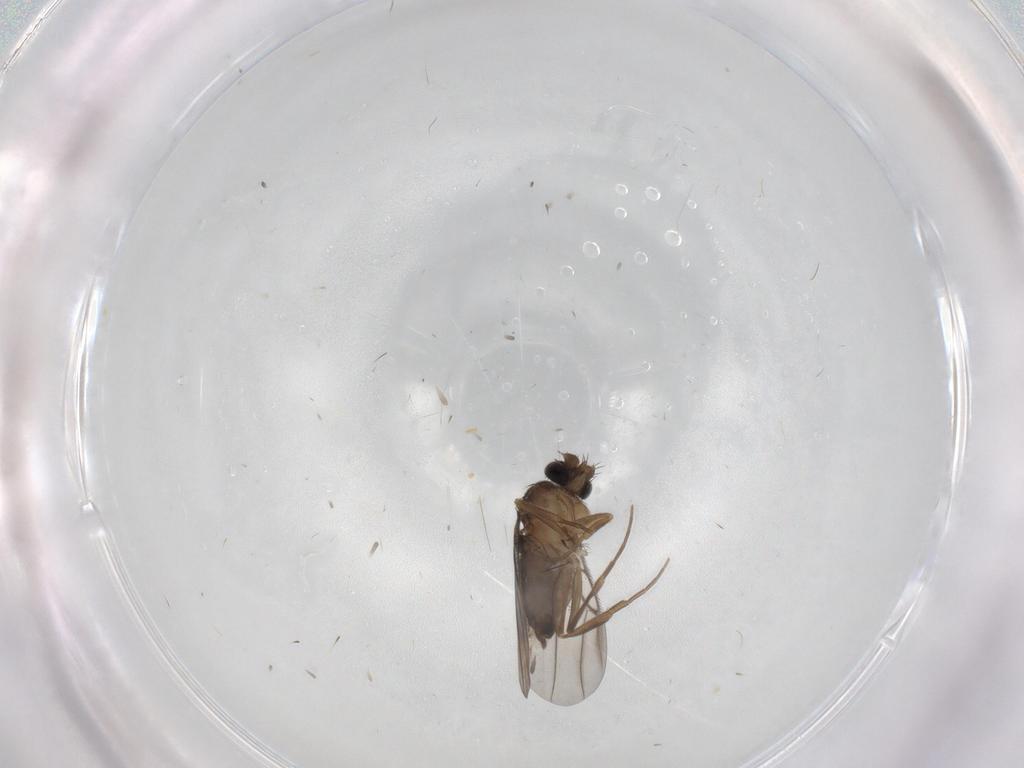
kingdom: Animalia
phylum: Arthropoda
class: Insecta
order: Diptera
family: Phoridae
